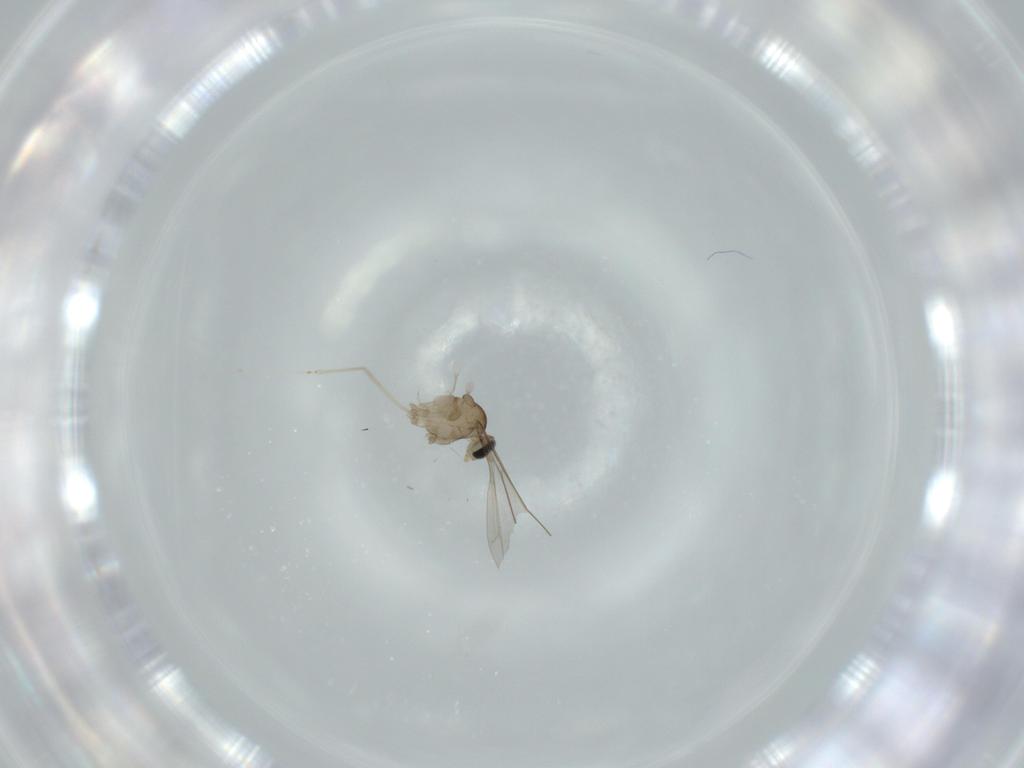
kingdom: Animalia
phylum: Arthropoda
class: Insecta
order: Diptera
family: Cecidomyiidae
